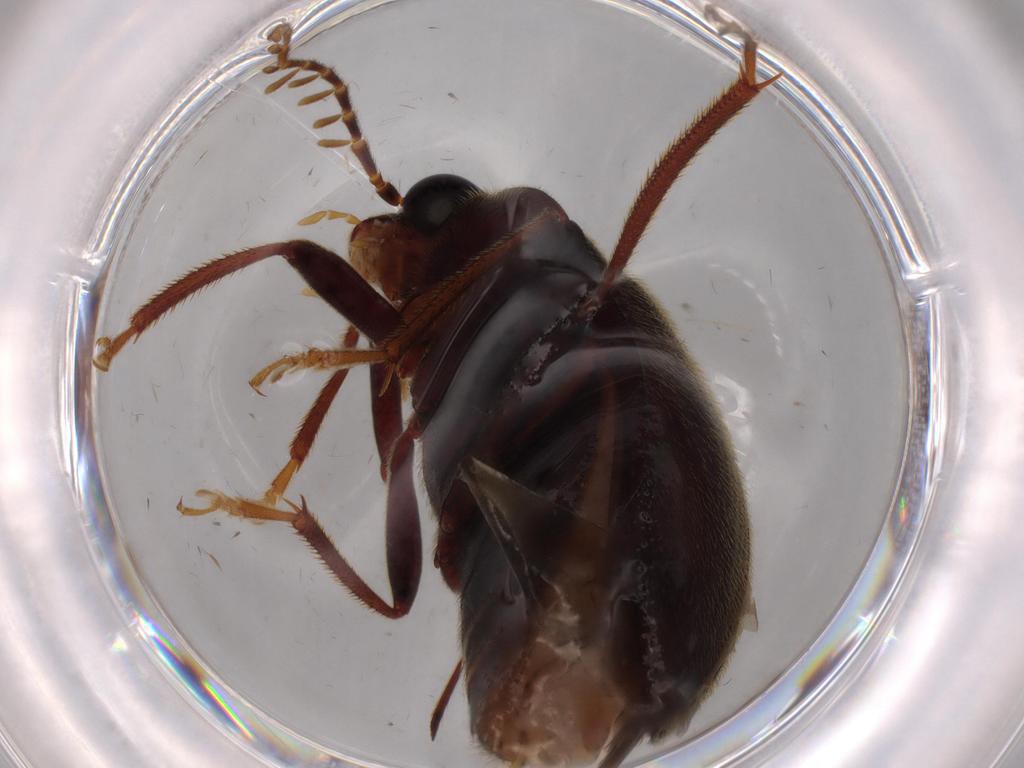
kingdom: Animalia
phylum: Arthropoda
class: Insecta
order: Coleoptera
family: Ptilodactylidae
